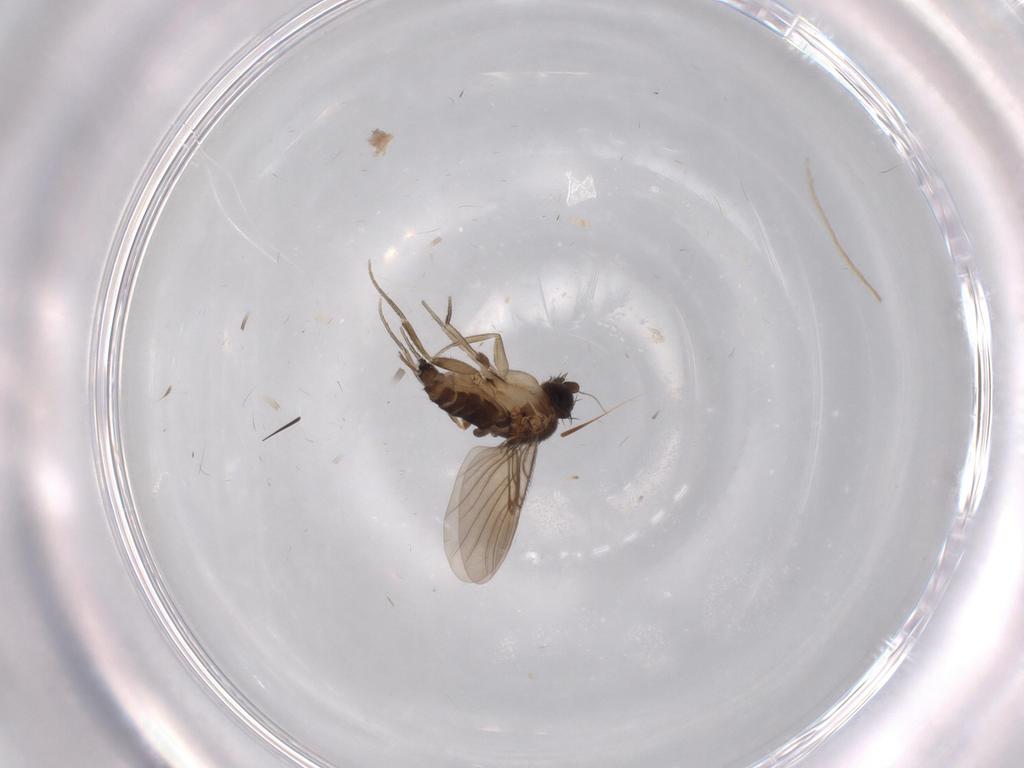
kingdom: Animalia
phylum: Arthropoda
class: Insecta
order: Diptera
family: Phoridae
